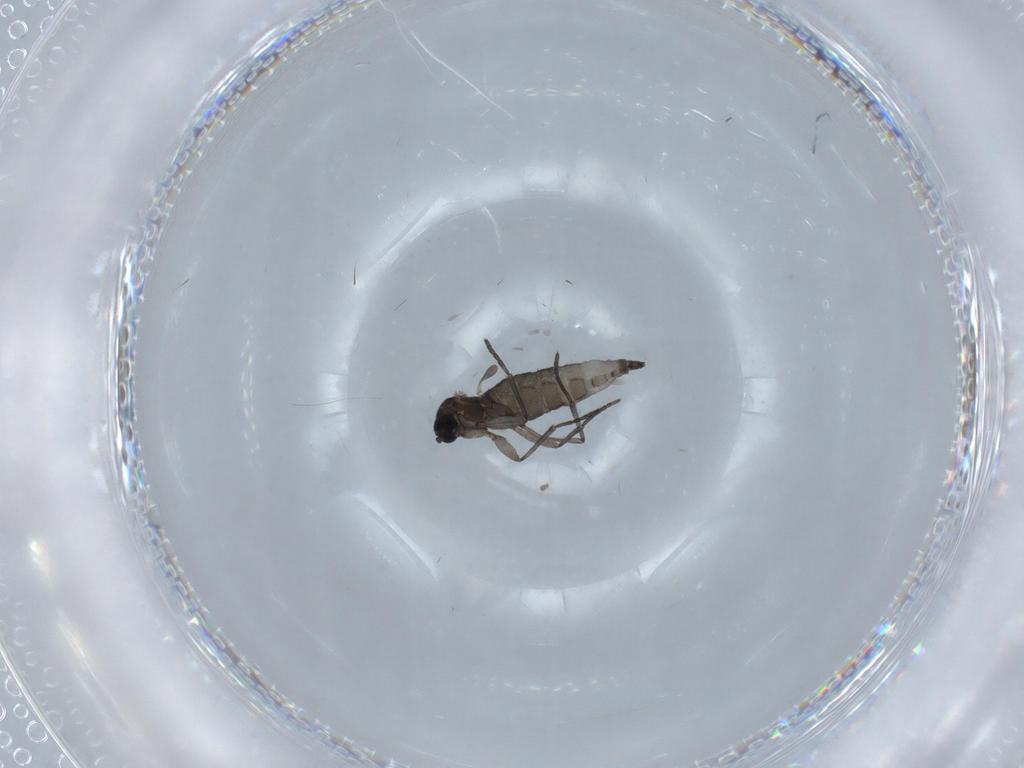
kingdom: Animalia
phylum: Arthropoda
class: Insecta
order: Diptera
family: Psychodidae
